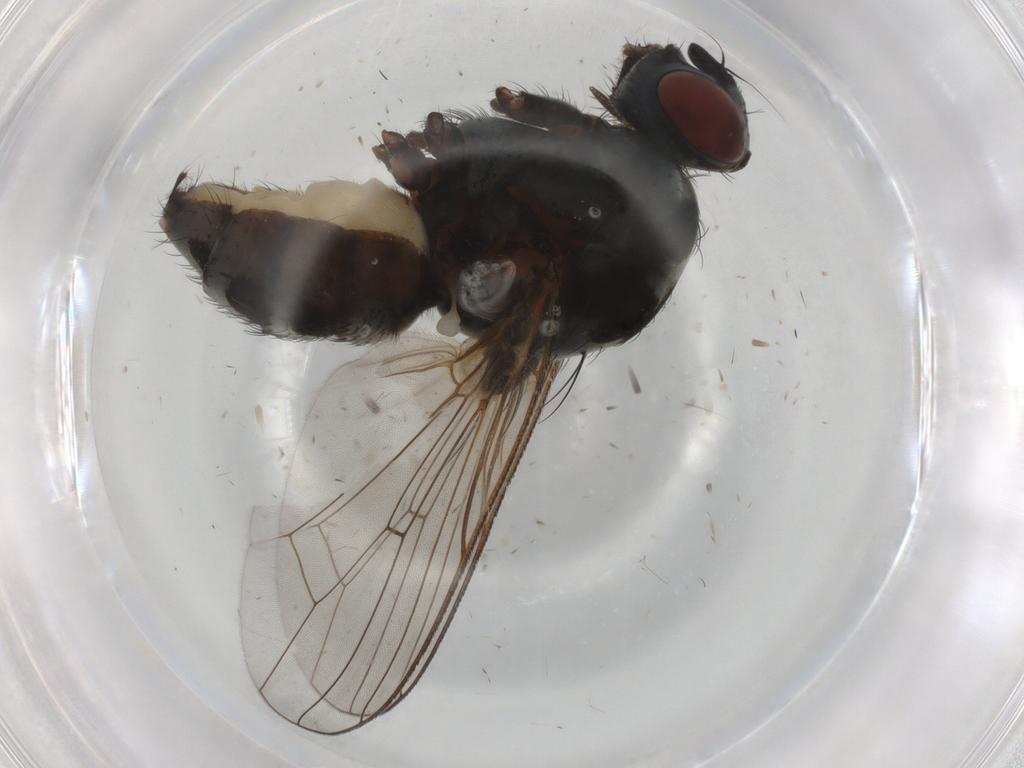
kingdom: Animalia
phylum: Arthropoda
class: Insecta
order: Diptera
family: Anthomyiidae
